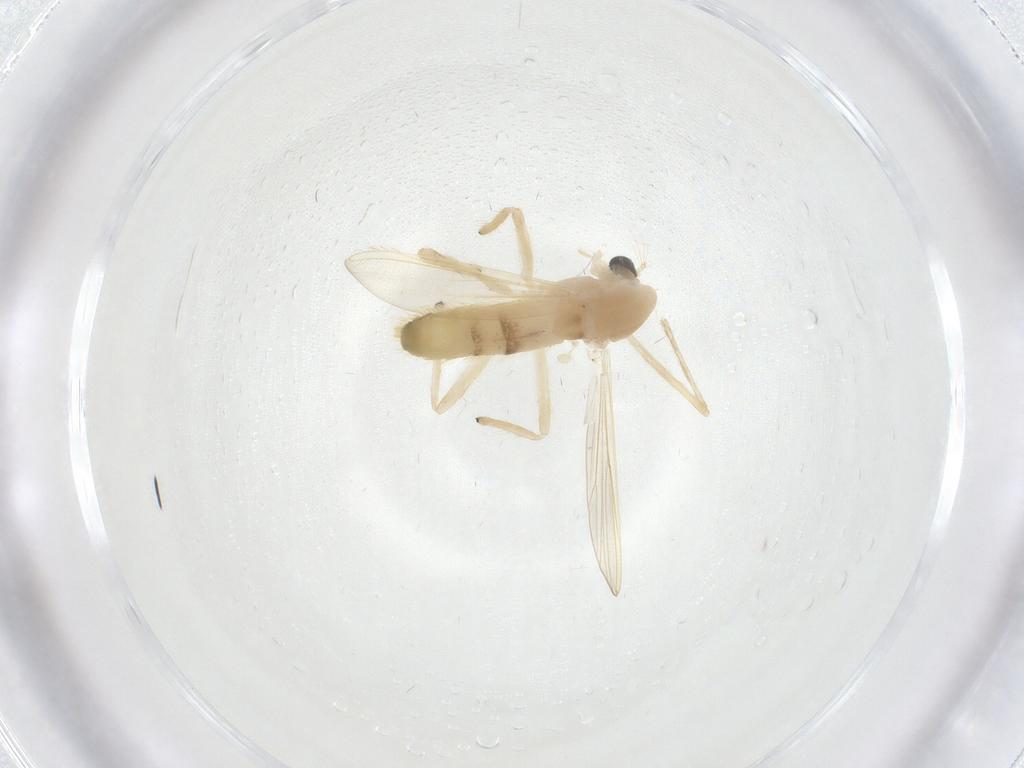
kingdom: Animalia
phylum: Arthropoda
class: Insecta
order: Diptera
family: Chironomidae
